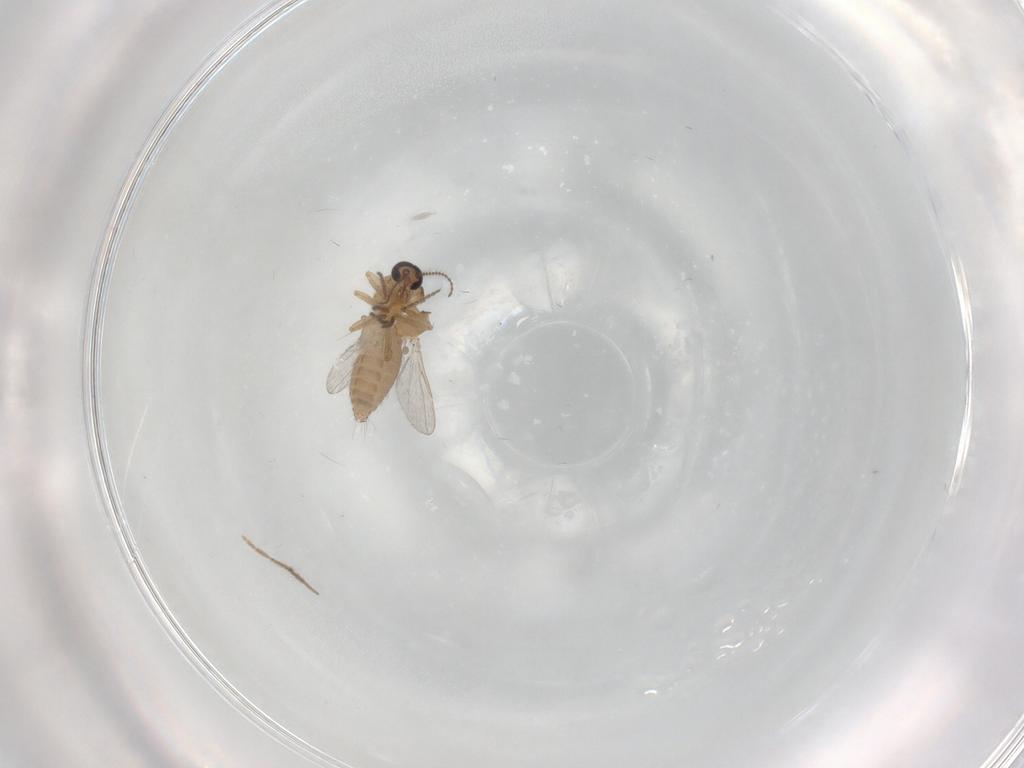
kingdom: Animalia
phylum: Arthropoda
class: Insecta
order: Diptera
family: Ceratopogonidae
